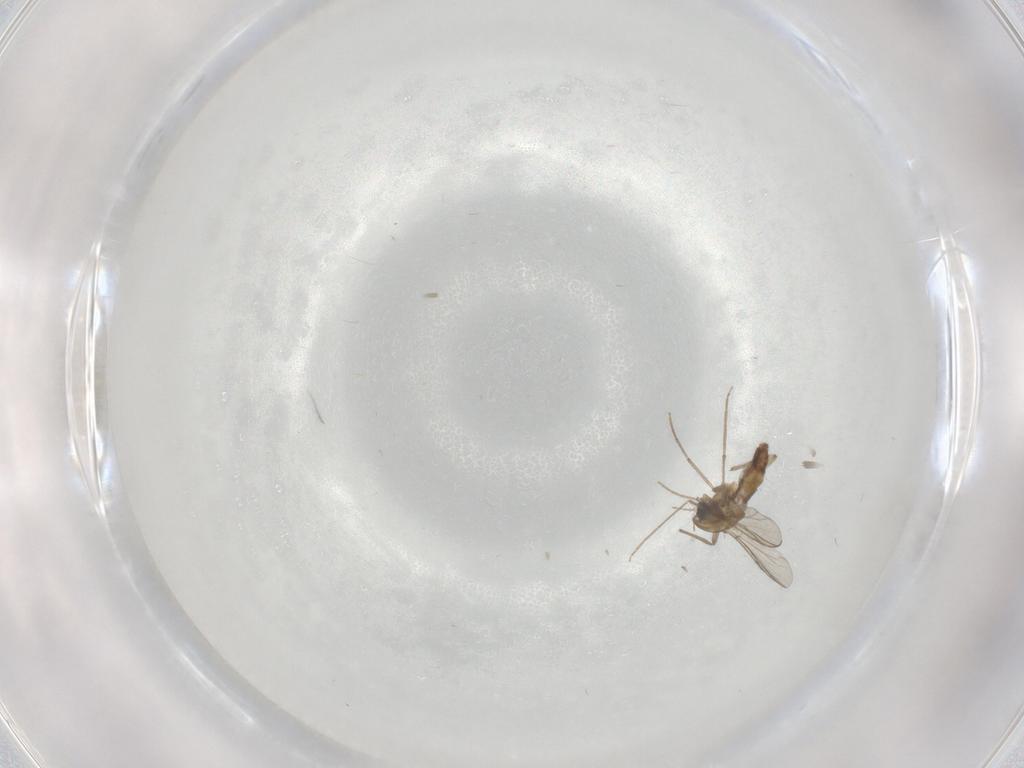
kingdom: Animalia
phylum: Arthropoda
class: Insecta
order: Diptera
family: Chironomidae
